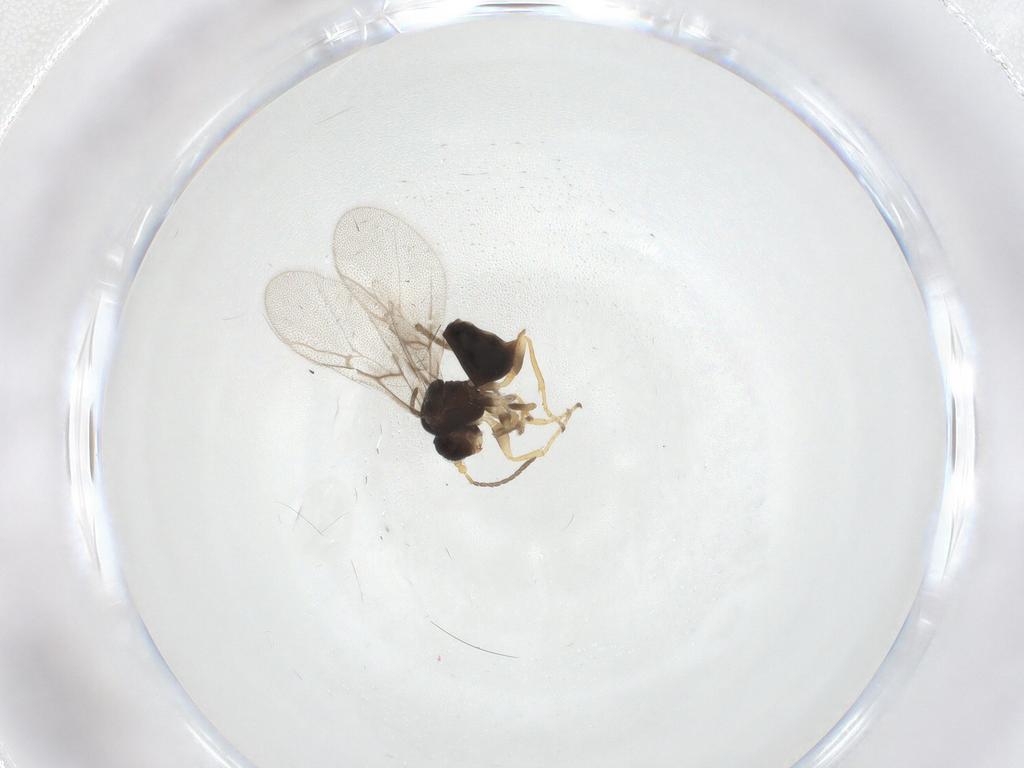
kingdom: Animalia
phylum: Arthropoda
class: Insecta
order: Hymenoptera
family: Cynipidae
